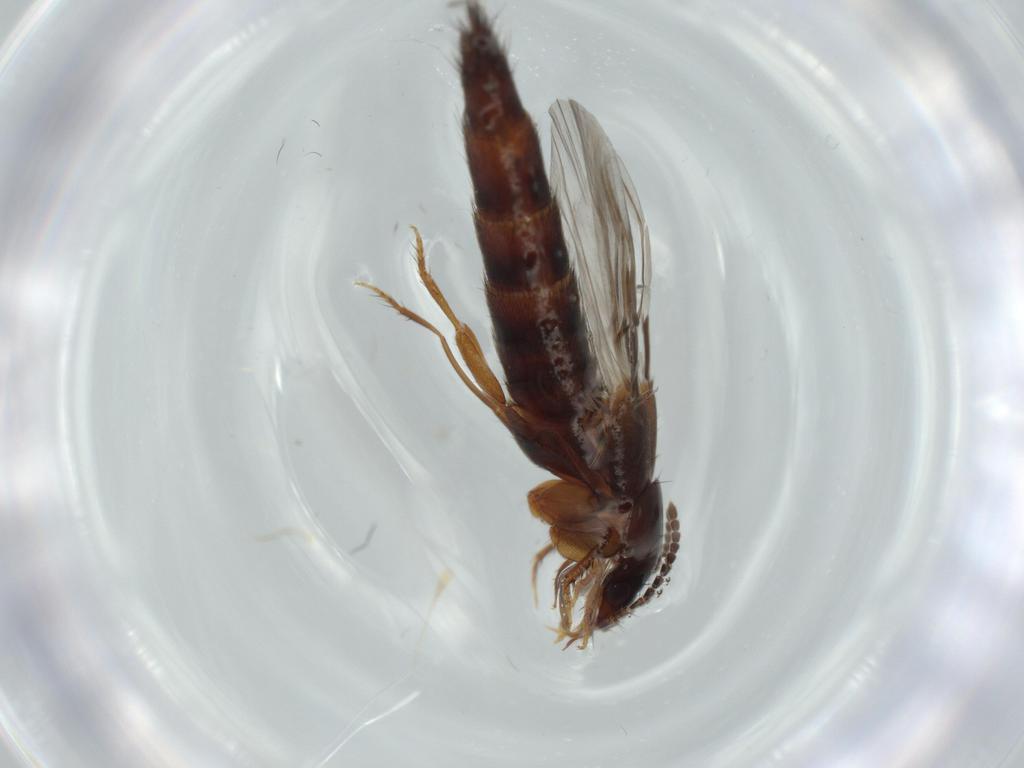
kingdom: Animalia
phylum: Arthropoda
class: Insecta
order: Coleoptera
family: Staphylinidae
